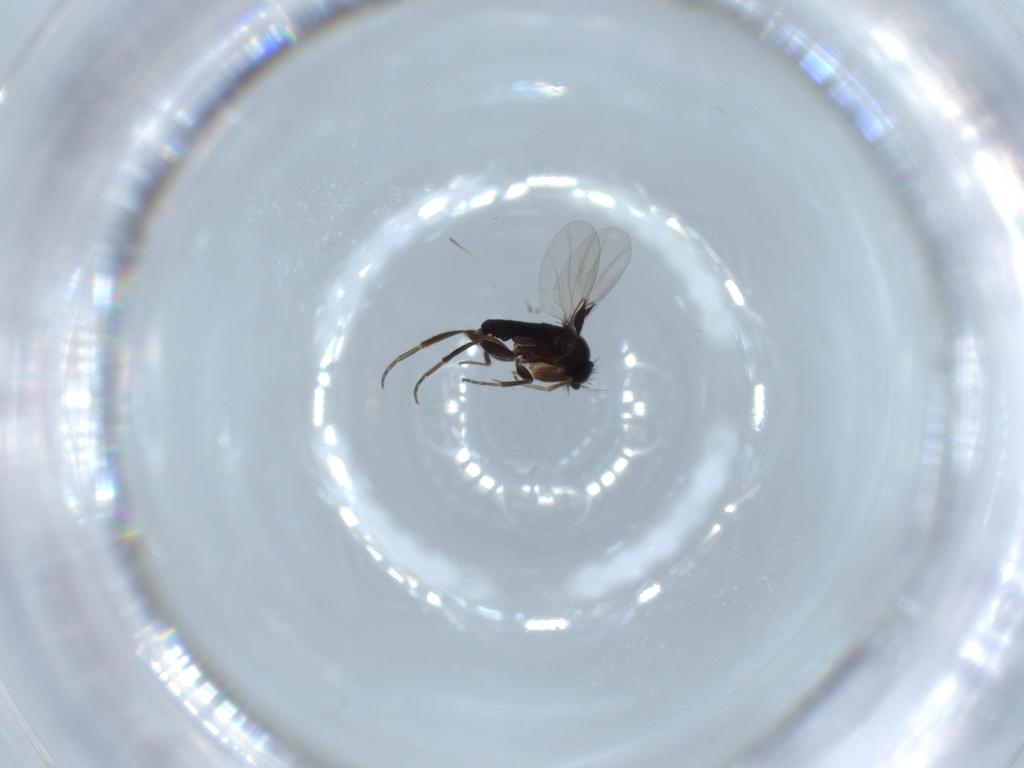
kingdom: Animalia
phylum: Arthropoda
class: Insecta
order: Diptera
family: Phoridae
